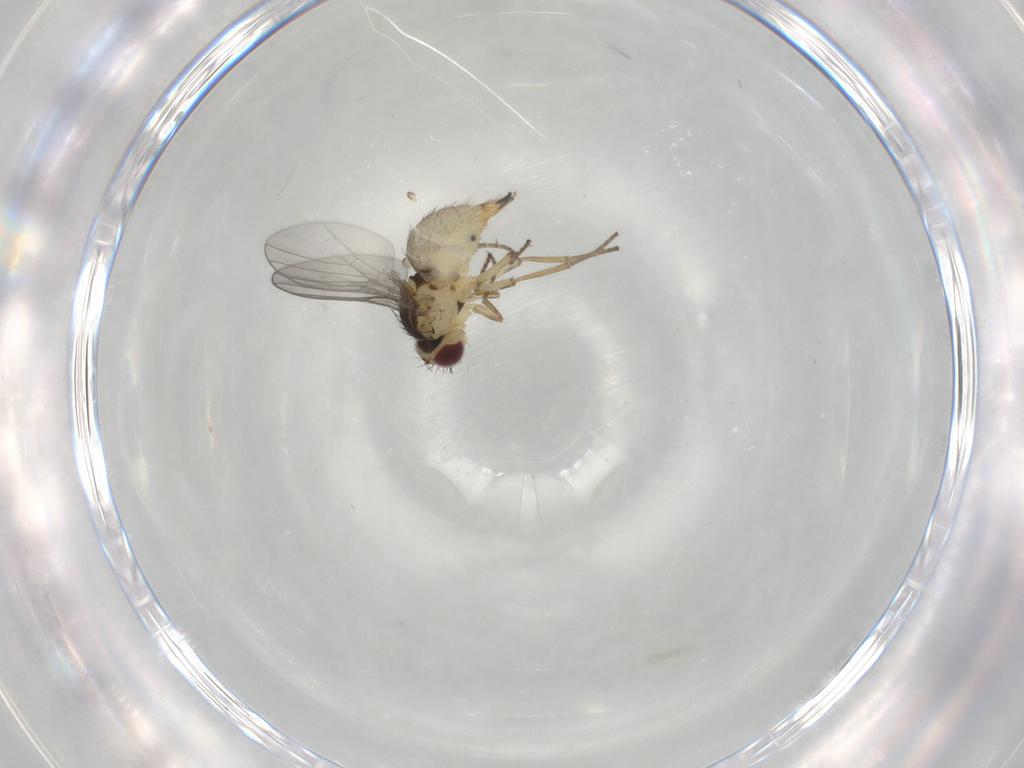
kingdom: Animalia
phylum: Arthropoda
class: Insecta
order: Diptera
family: Agromyzidae
